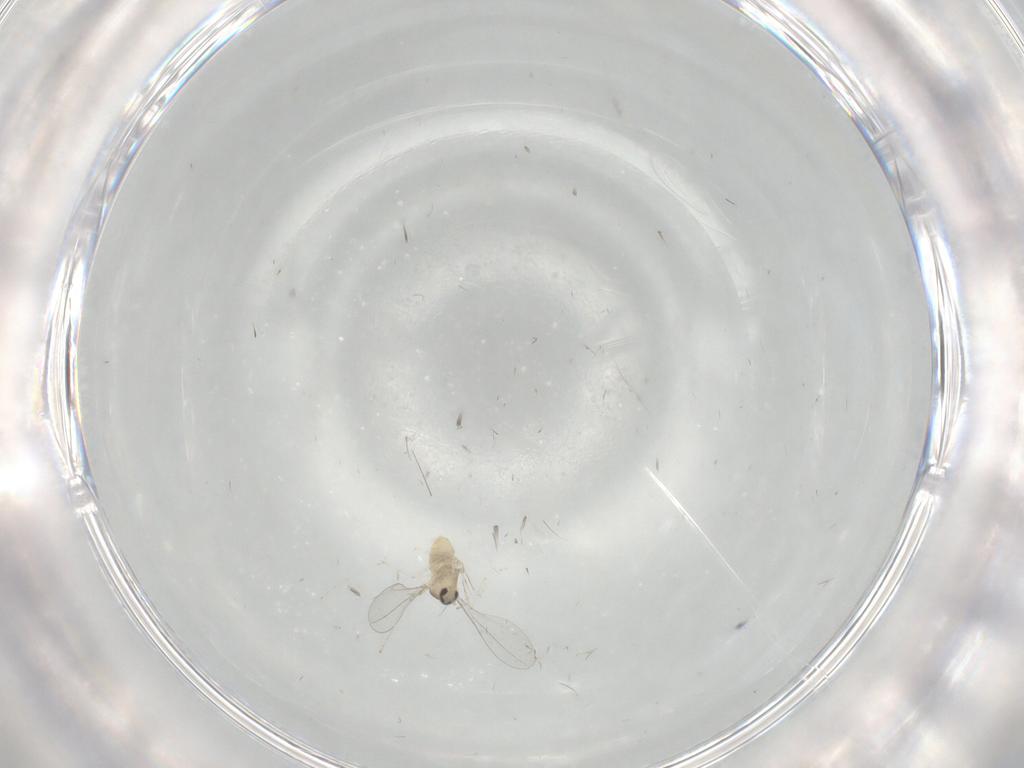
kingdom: Animalia
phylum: Arthropoda
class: Insecta
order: Diptera
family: Cecidomyiidae
